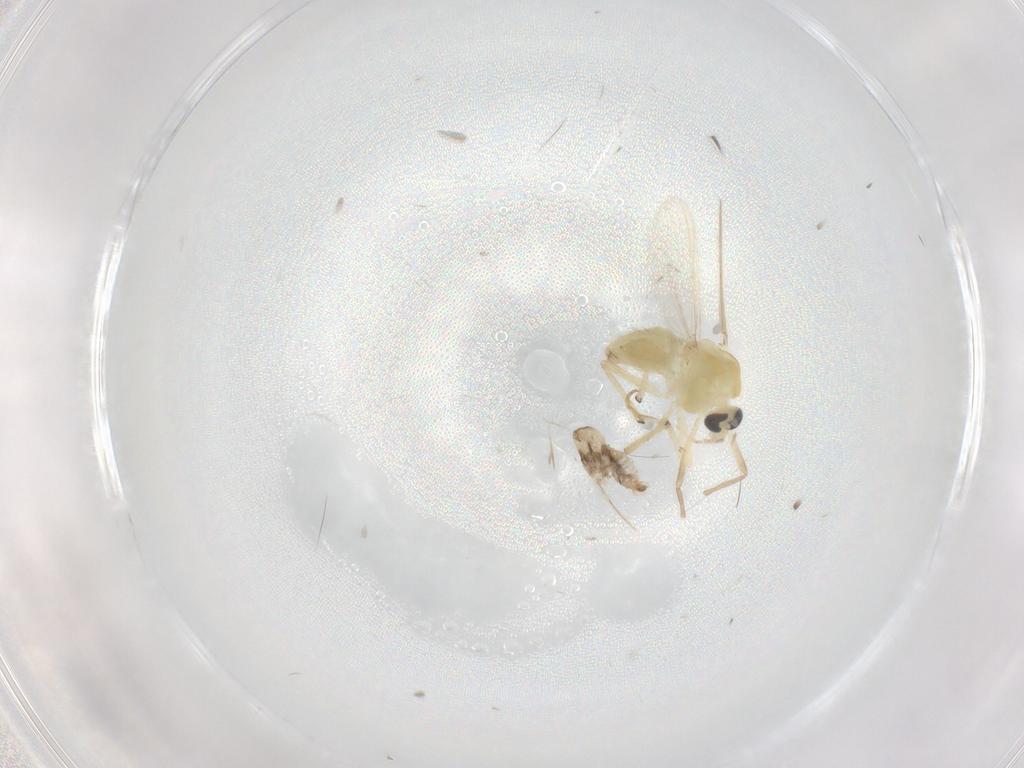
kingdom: Animalia
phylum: Arthropoda
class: Insecta
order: Diptera
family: Chironomidae
